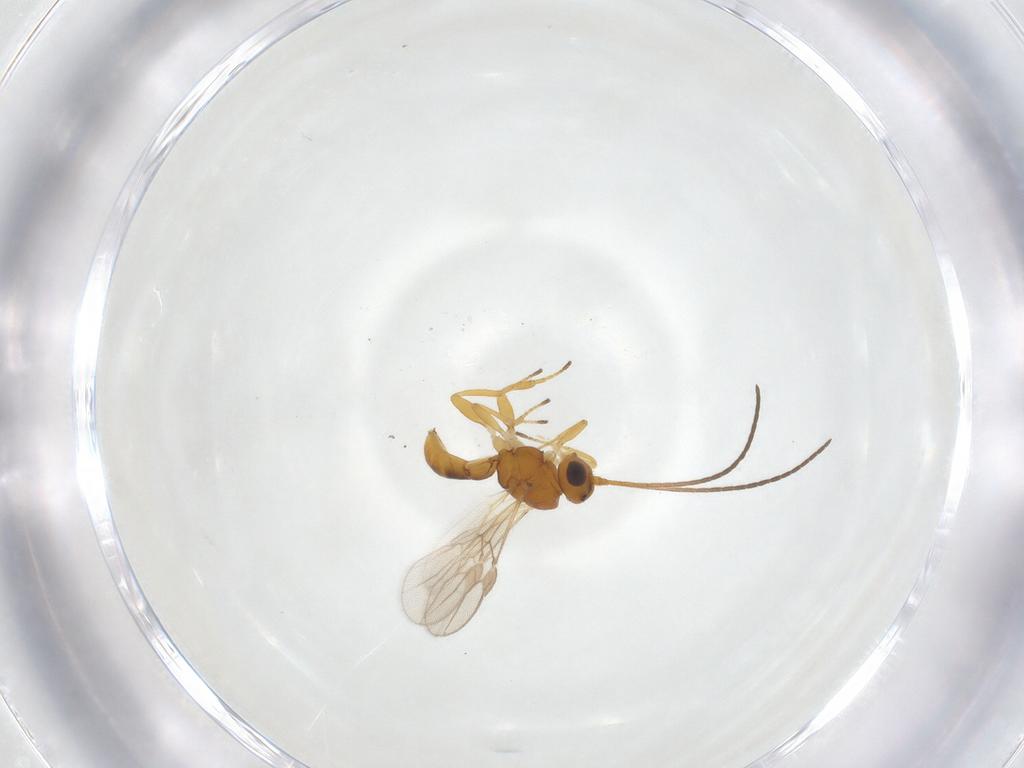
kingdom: Animalia
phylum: Arthropoda
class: Insecta
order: Hymenoptera
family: Braconidae
